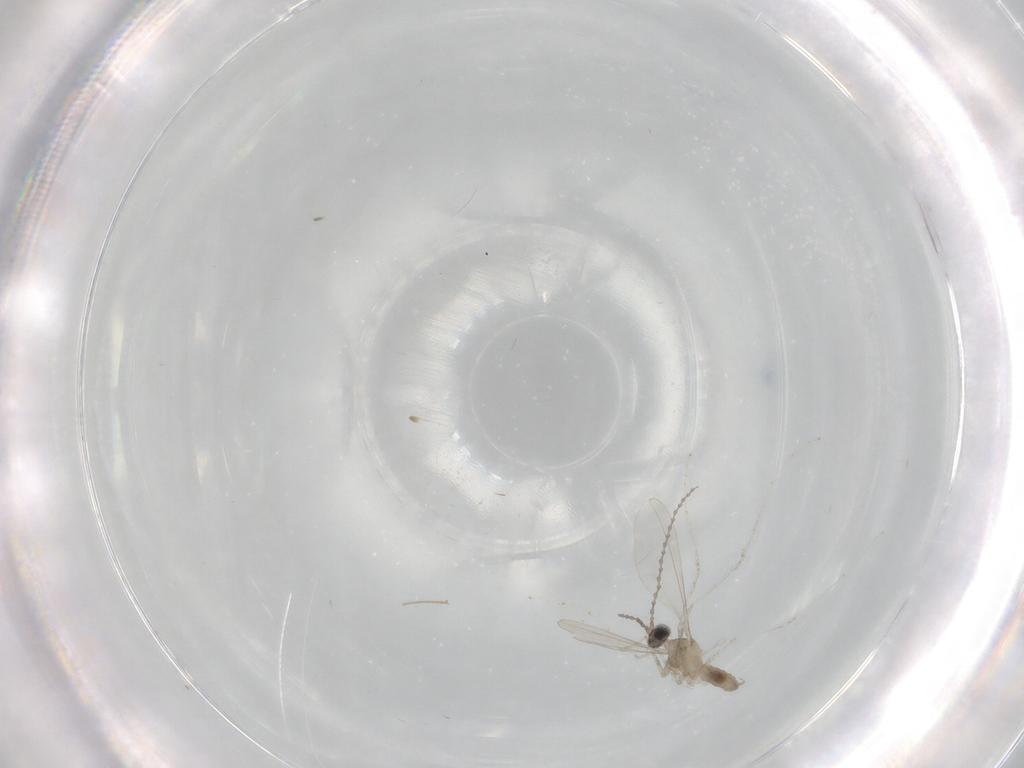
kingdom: Animalia
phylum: Arthropoda
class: Insecta
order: Diptera
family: Cecidomyiidae
